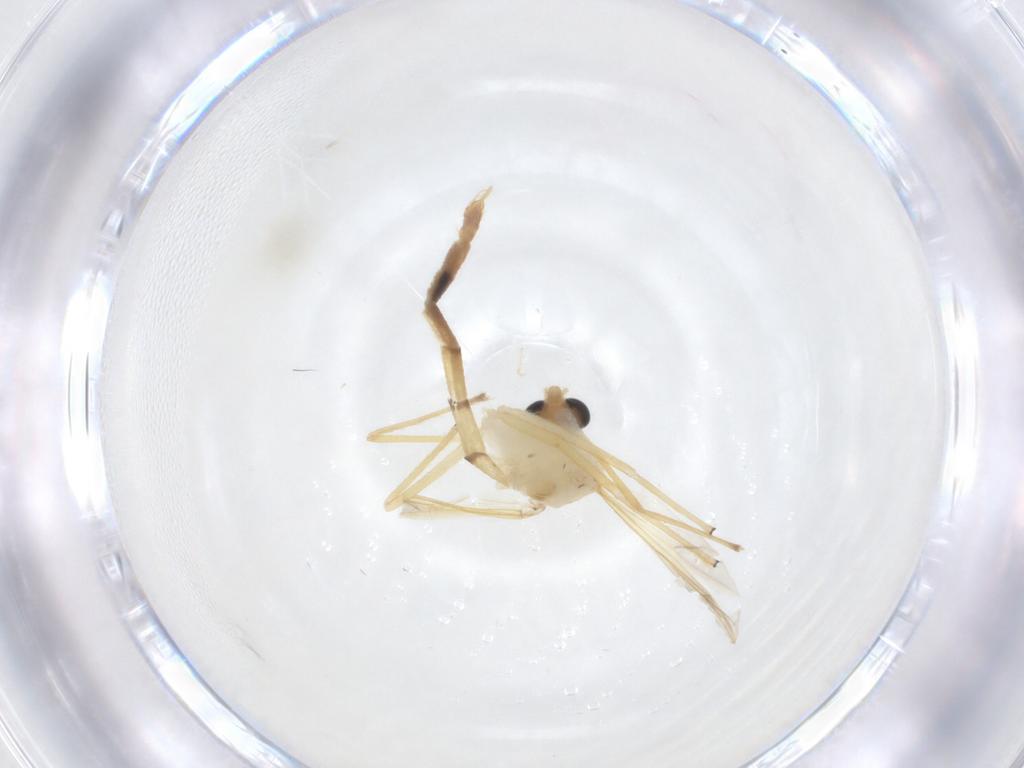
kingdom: Animalia
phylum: Arthropoda
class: Insecta
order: Diptera
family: Chironomidae
